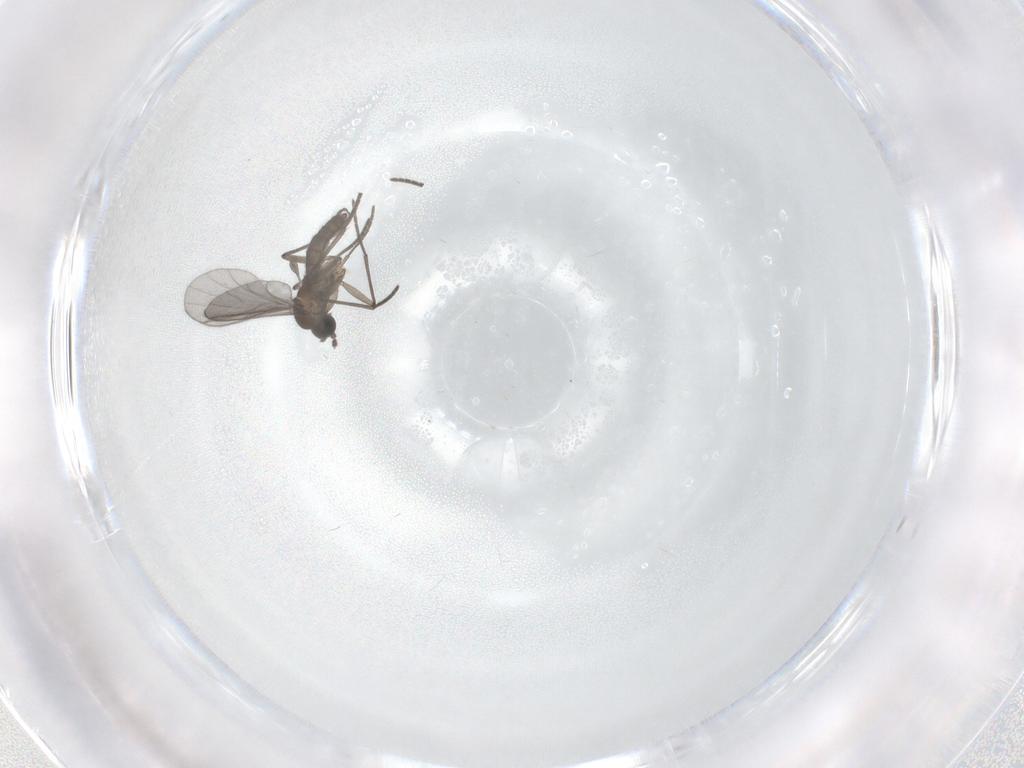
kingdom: Animalia
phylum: Arthropoda
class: Insecta
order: Diptera
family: Drosophilidae
